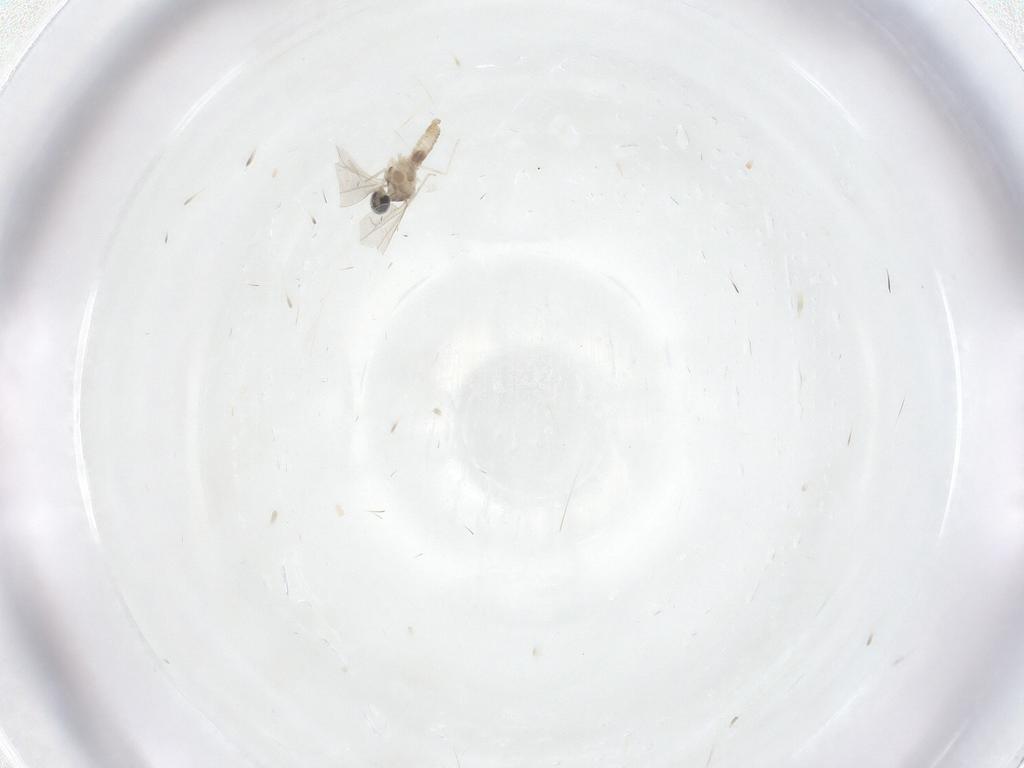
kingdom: Animalia
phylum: Arthropoda
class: Insecta
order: Diptera
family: Cecidomyiidae
